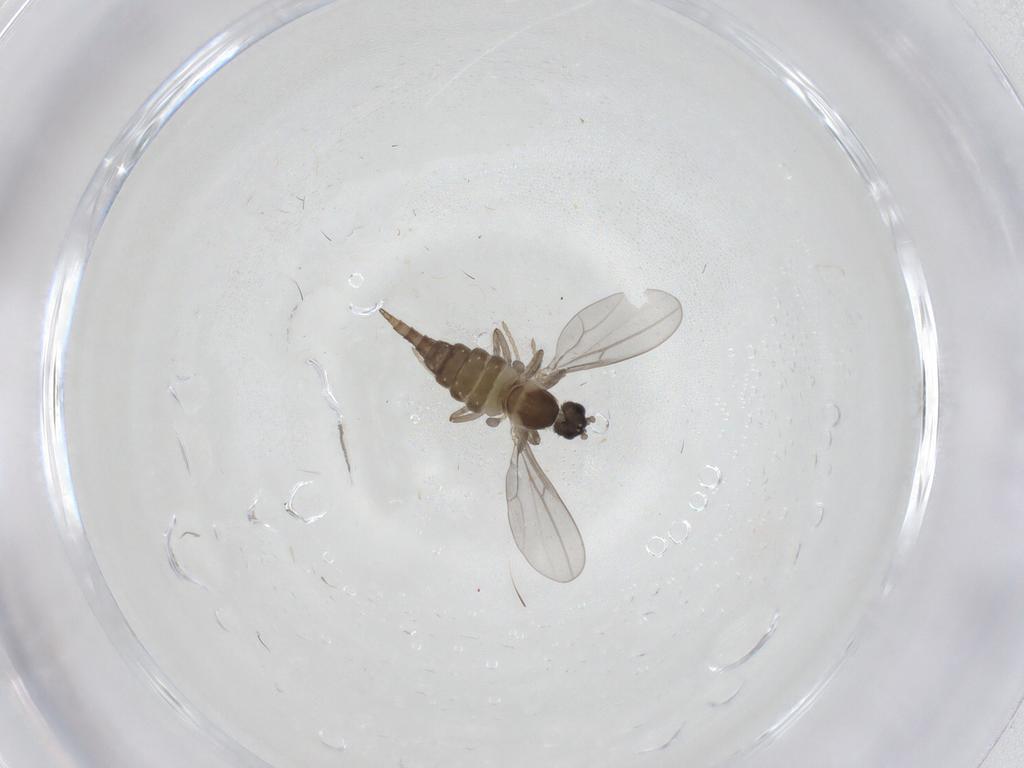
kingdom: Animalia
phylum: Arthropoda
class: Insecta
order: Diptera
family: Cecidomyiidae
